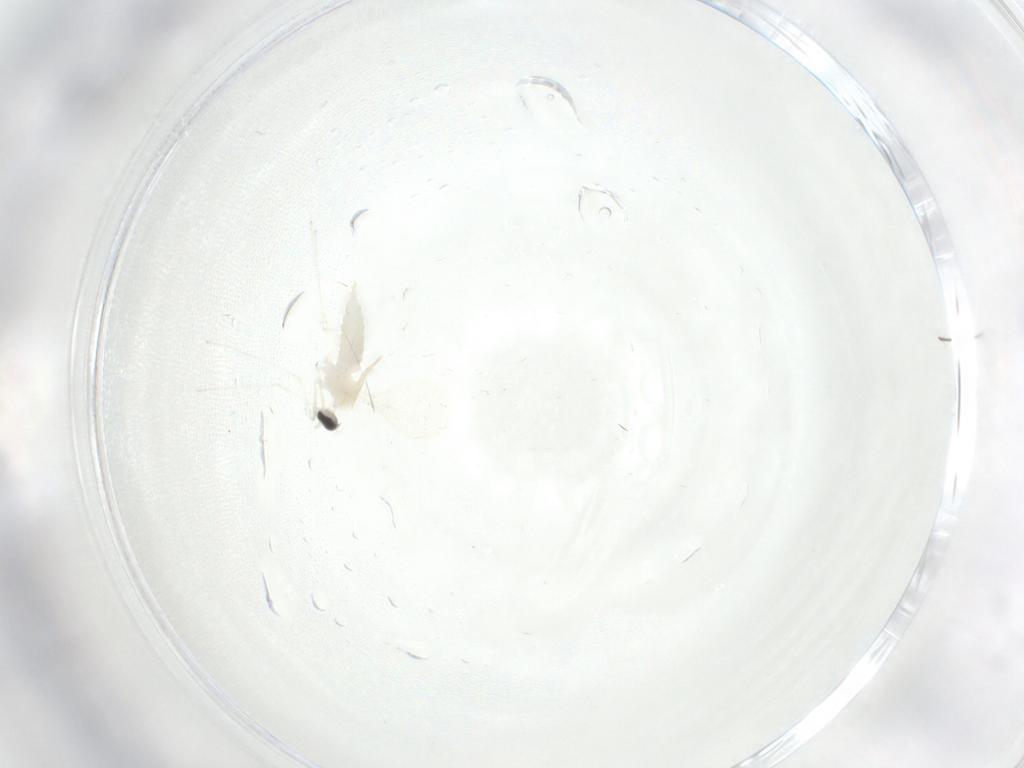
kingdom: Animalia
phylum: Arthropoda
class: Insecta
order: Diptera
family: Cecidomyiidae
